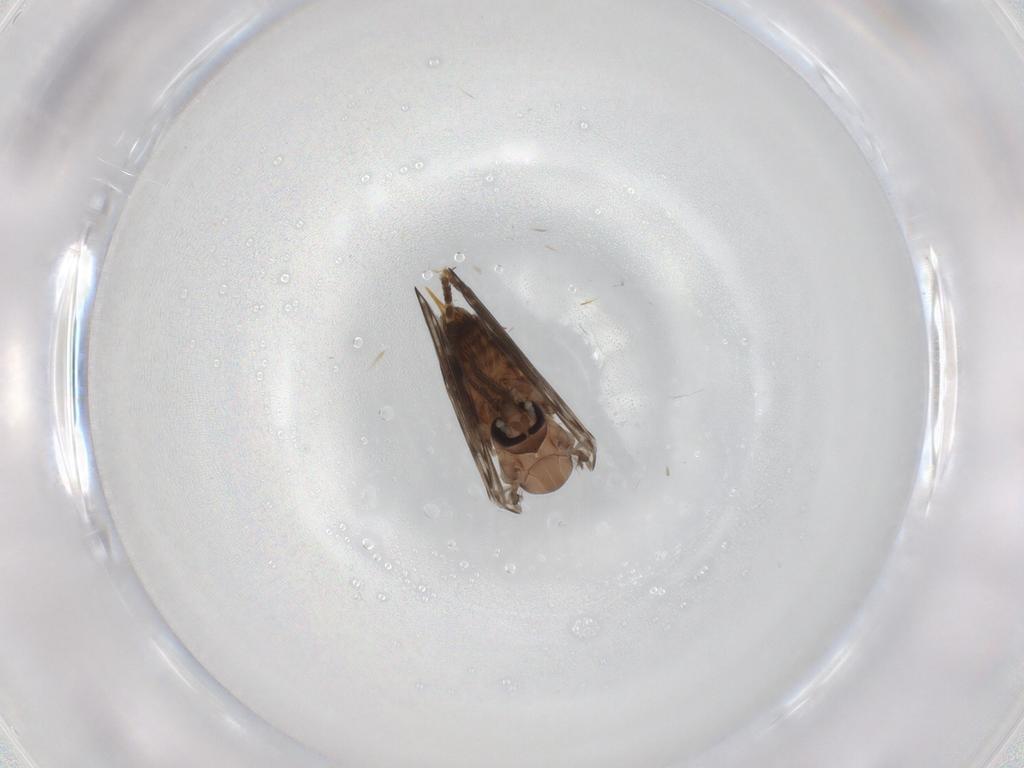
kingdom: Animalia
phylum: Arthropoda
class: Insecta
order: Diptera
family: Psychodidae
